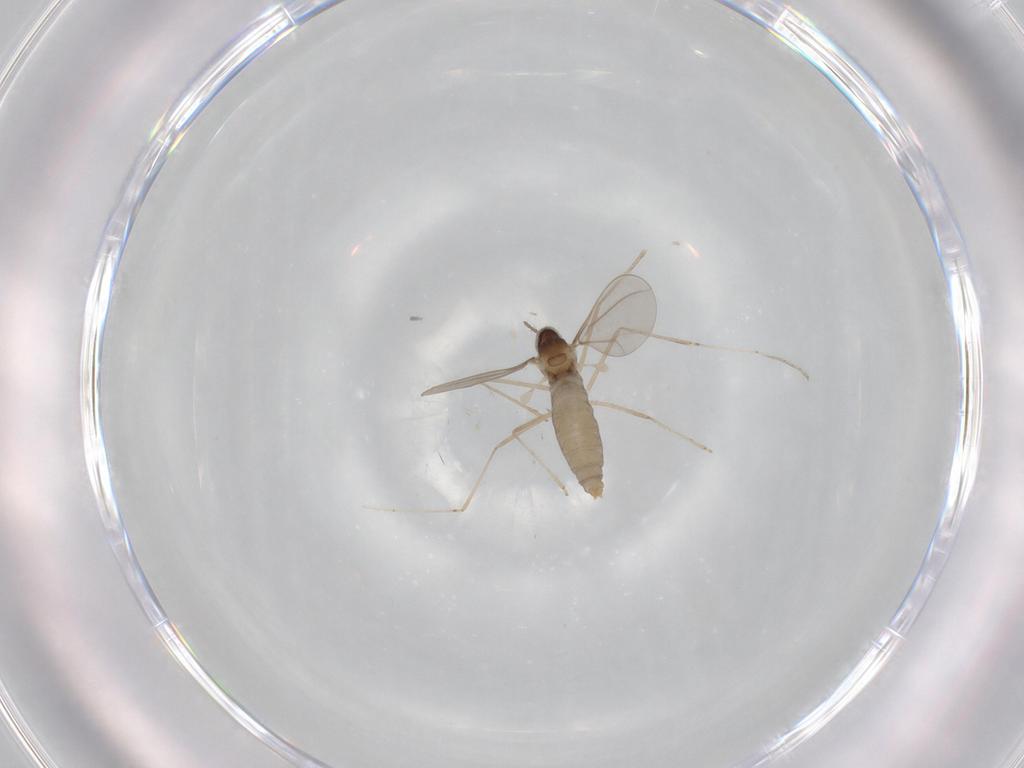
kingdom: Animalia
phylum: Arthropoda
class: Insecta
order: Diptera
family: Cecidomyiidae
